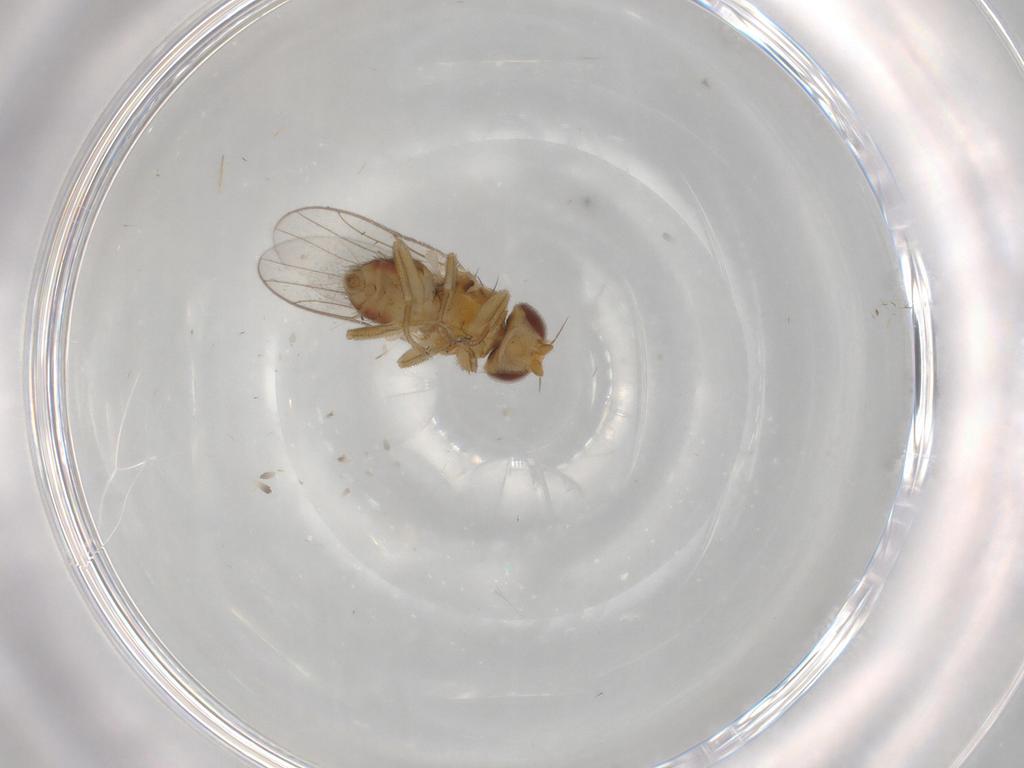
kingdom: Animalia
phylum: Arthropoda
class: Insecta
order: Diptera
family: Chloropidae
